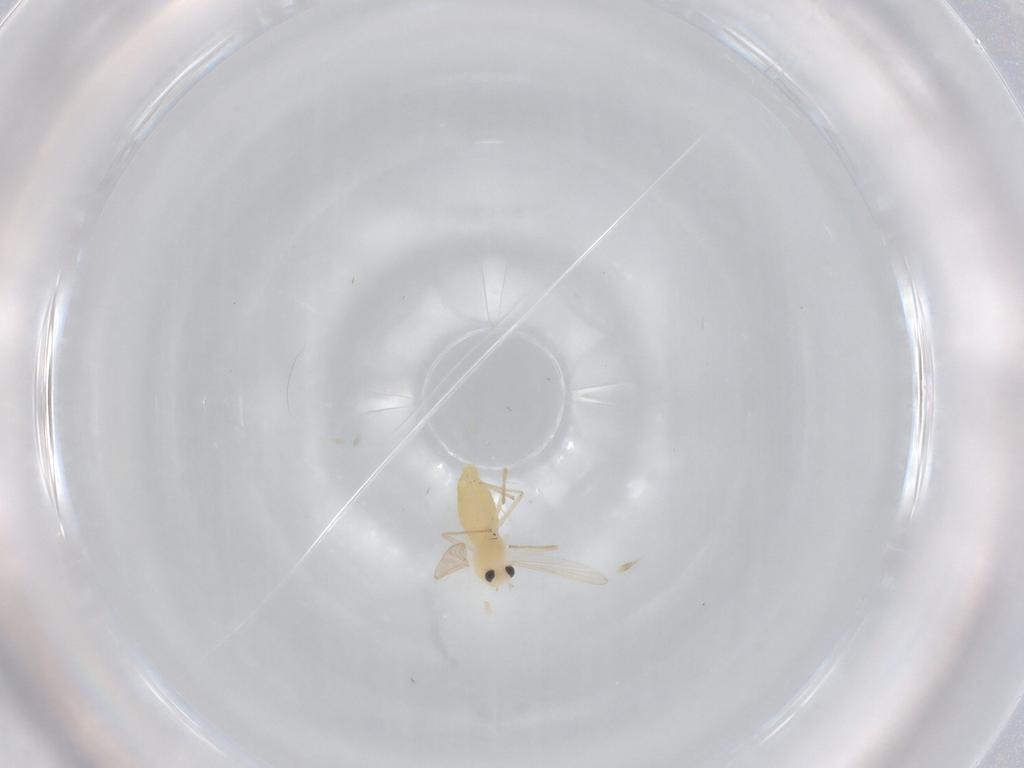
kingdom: Animalia
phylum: Arthropoda
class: Insecta
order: Diptera
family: Chironomidae
